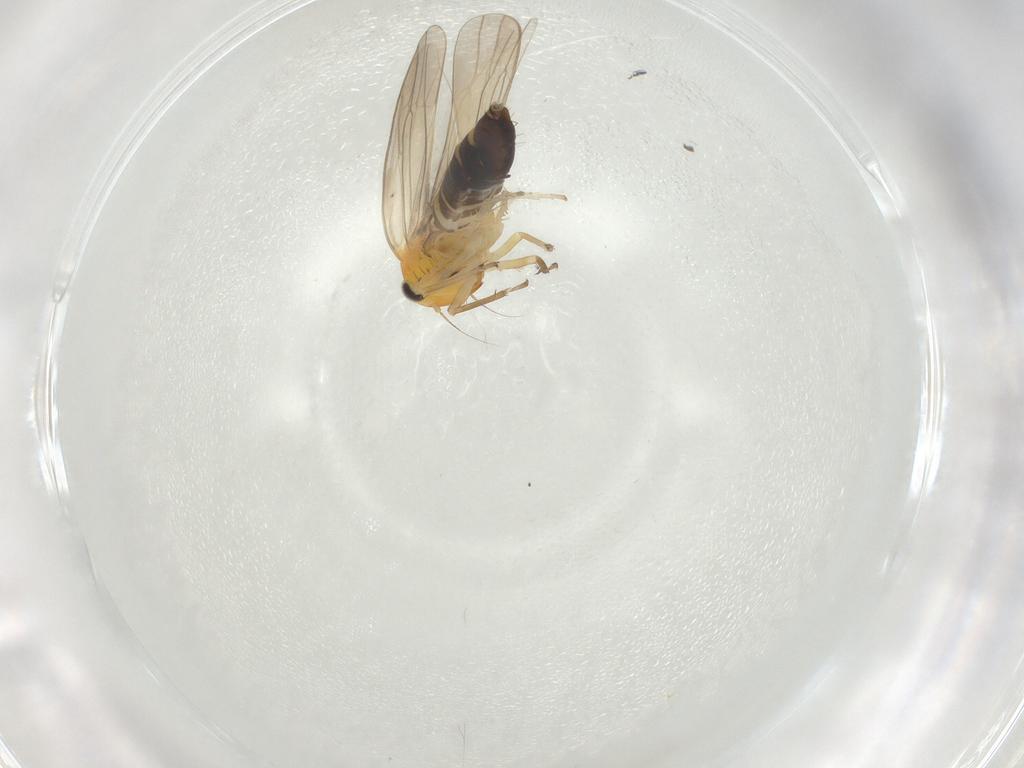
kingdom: Animalia
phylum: Arthropoda
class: Insecta
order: Hemiptera
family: Cicadellidae
